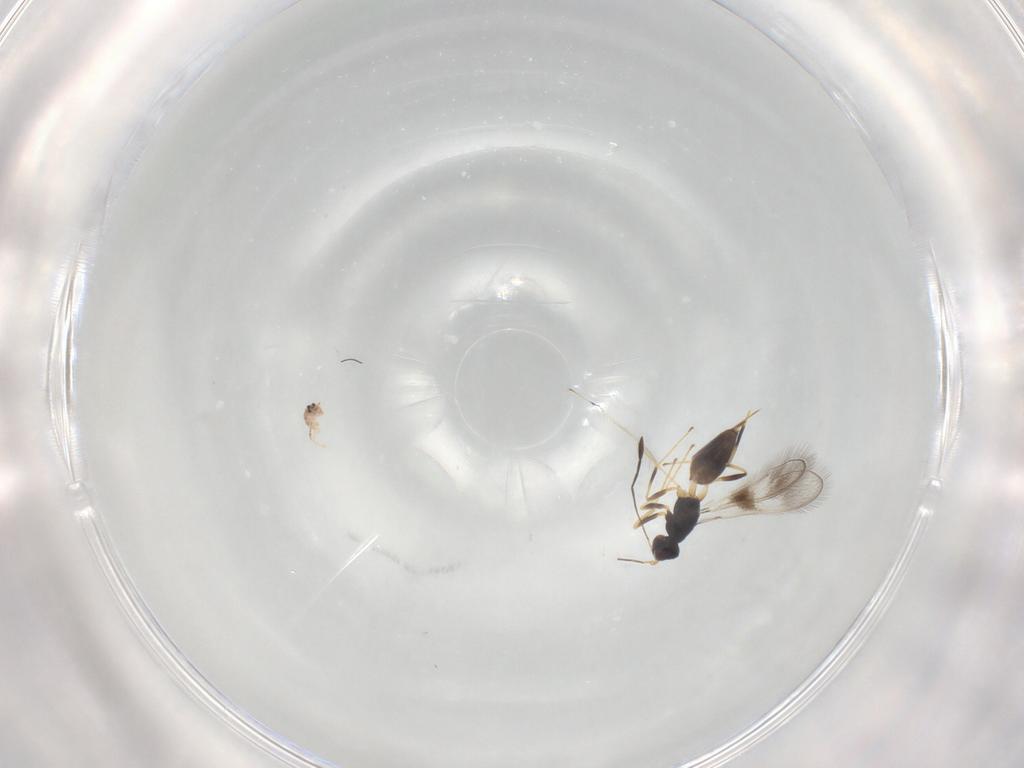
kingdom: Animalia
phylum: Arthropoda
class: Insecta
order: Hymenoptera
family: Mymaridae
